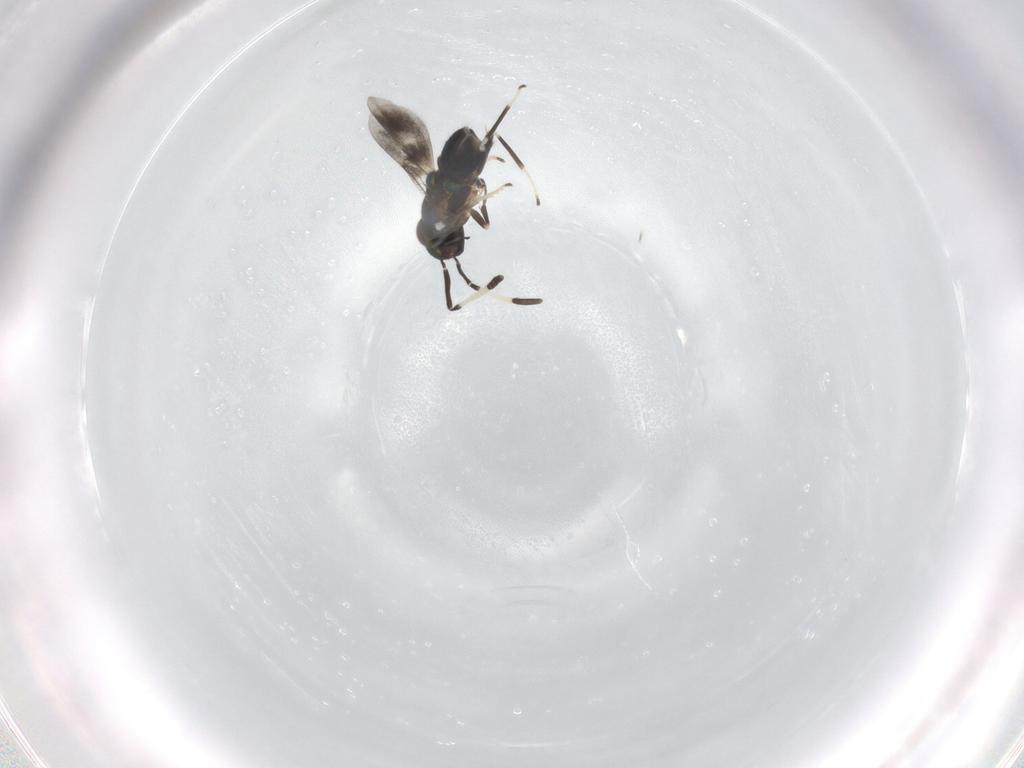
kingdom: Animalia
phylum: Arthropoda
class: Insecta
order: Hymenoptera
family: Encyrtidae
